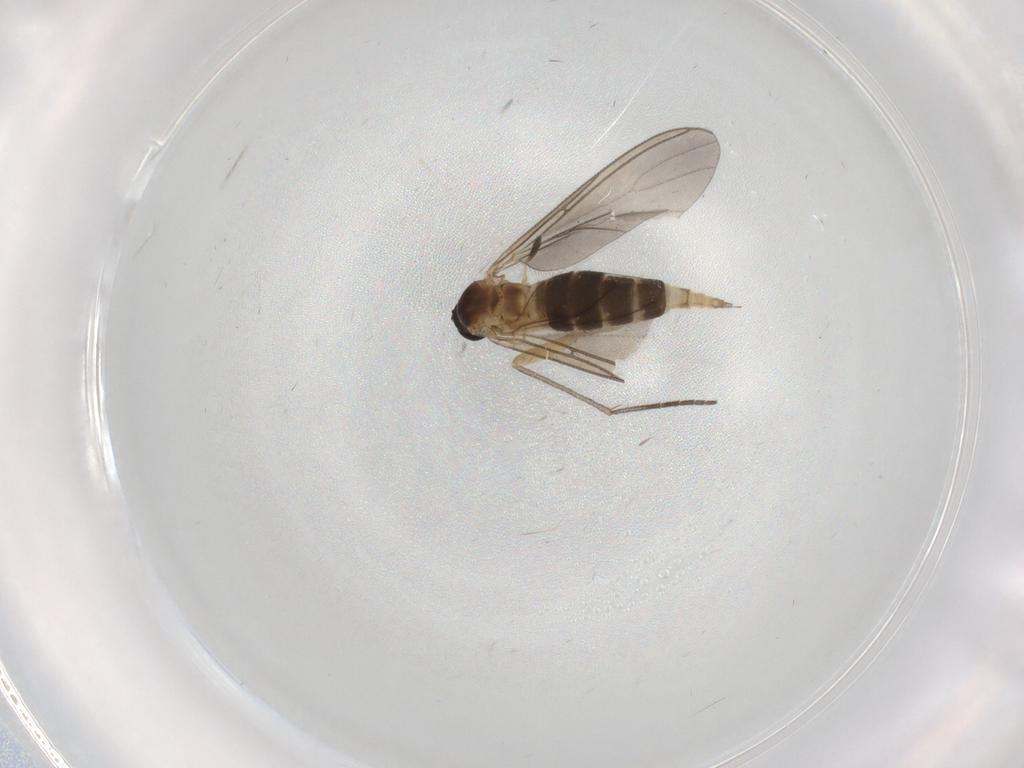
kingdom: Animalia
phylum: Arthropoda
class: Insecta
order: Diptera
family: Sciaridae
